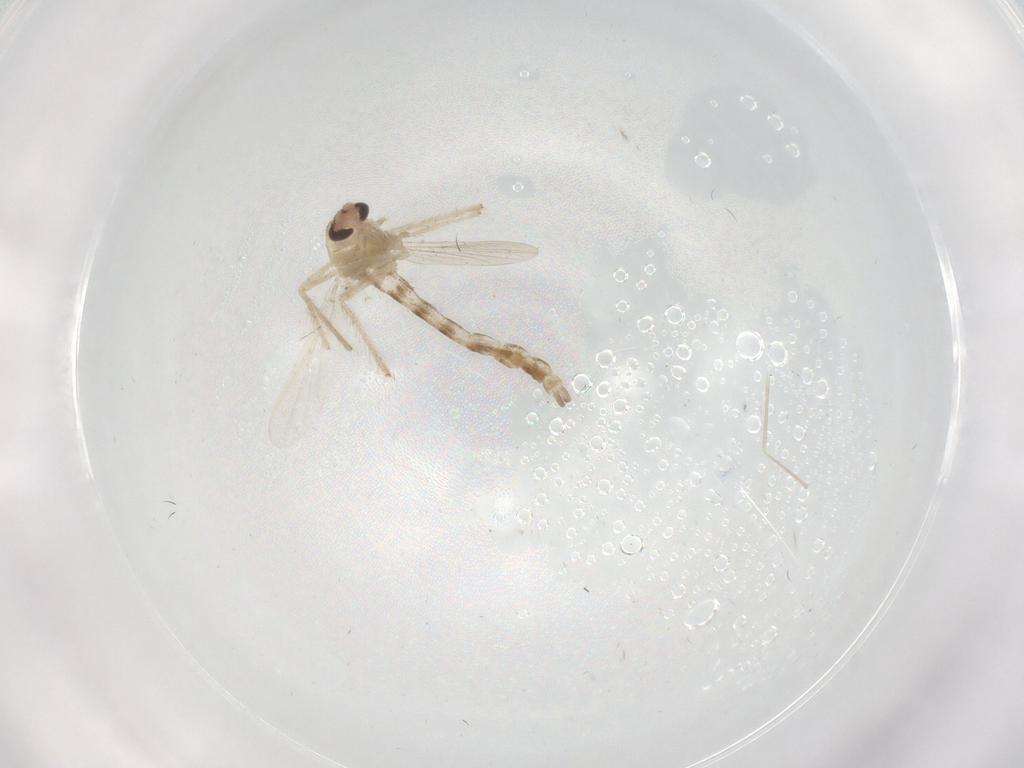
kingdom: Animalia
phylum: Arthropoda
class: Insecta
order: Diptera
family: Chironomidae
